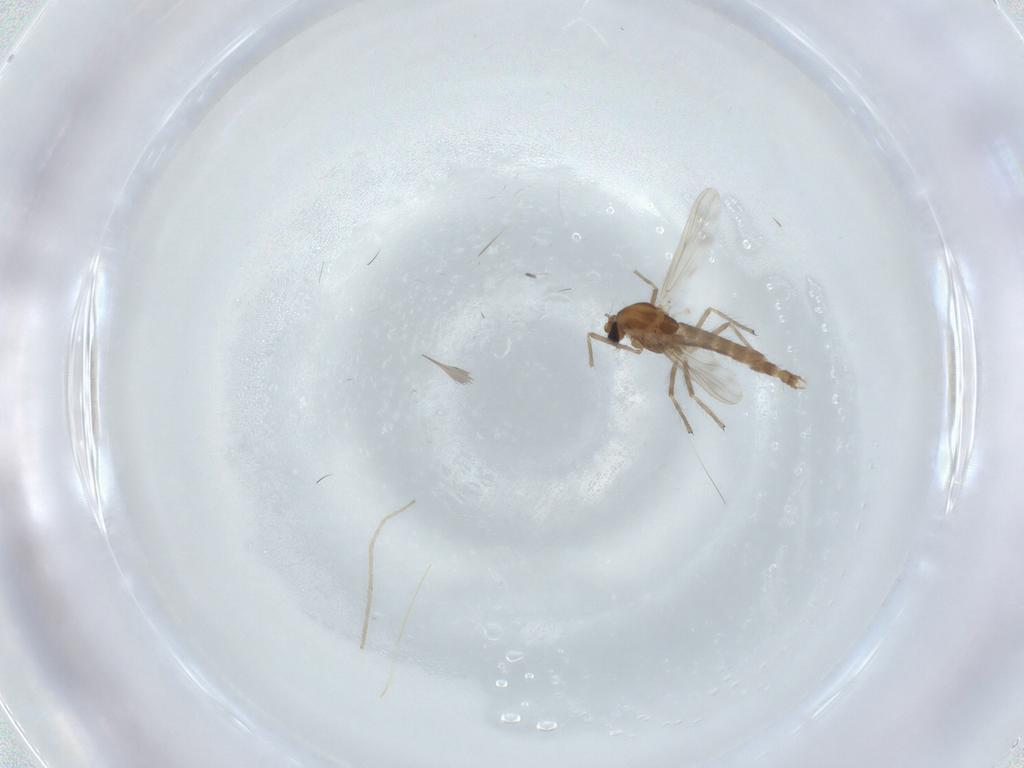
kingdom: Animalia
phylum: Arthropoda
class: Insecta
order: Diptera
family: Chironomidae
